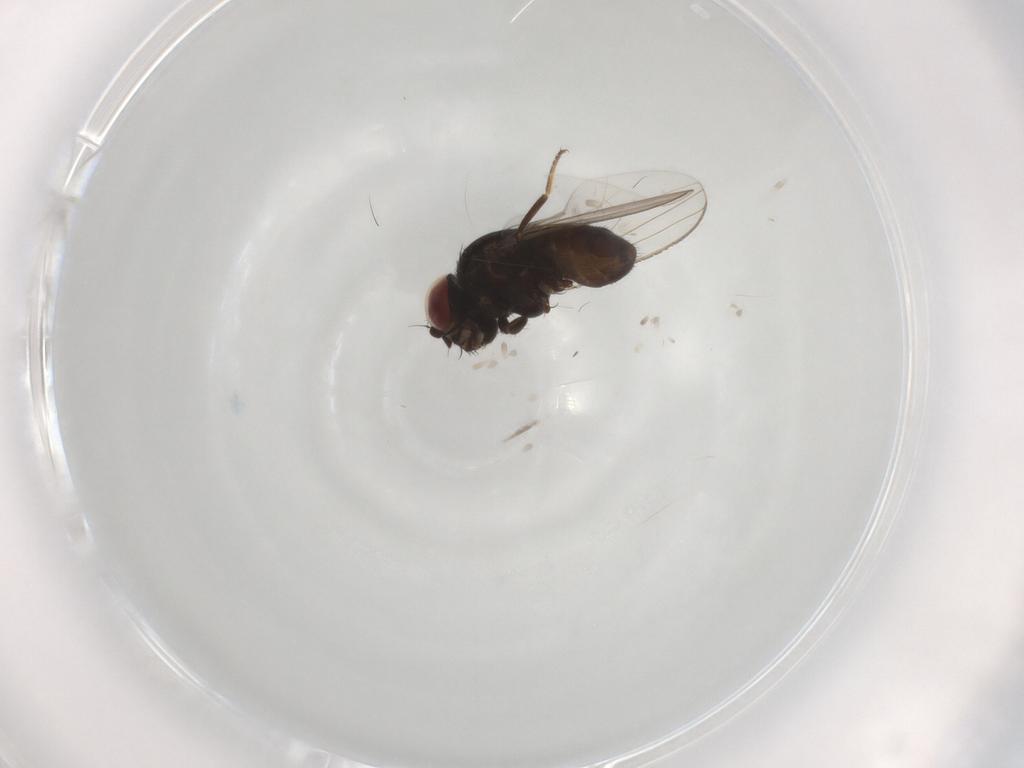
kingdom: Animalia
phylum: Arthropoda
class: Insecta
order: Diptera
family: Milichiidae
